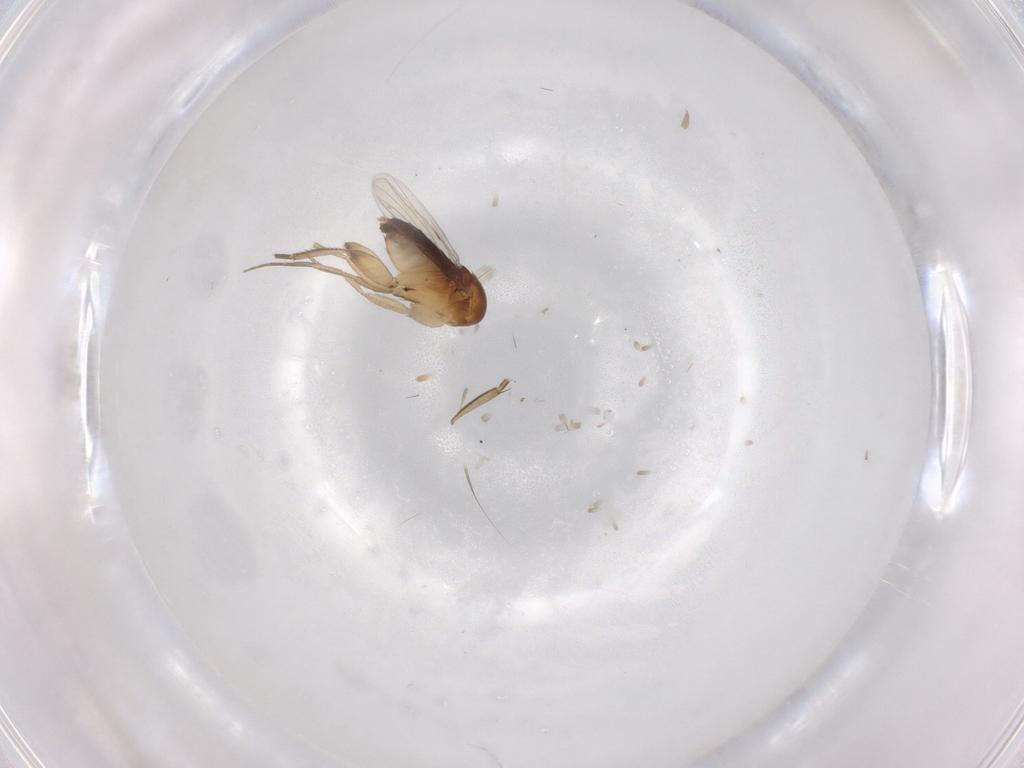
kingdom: Animalia
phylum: Arthropoda
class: Insecta
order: Diptera
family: Phoridae
